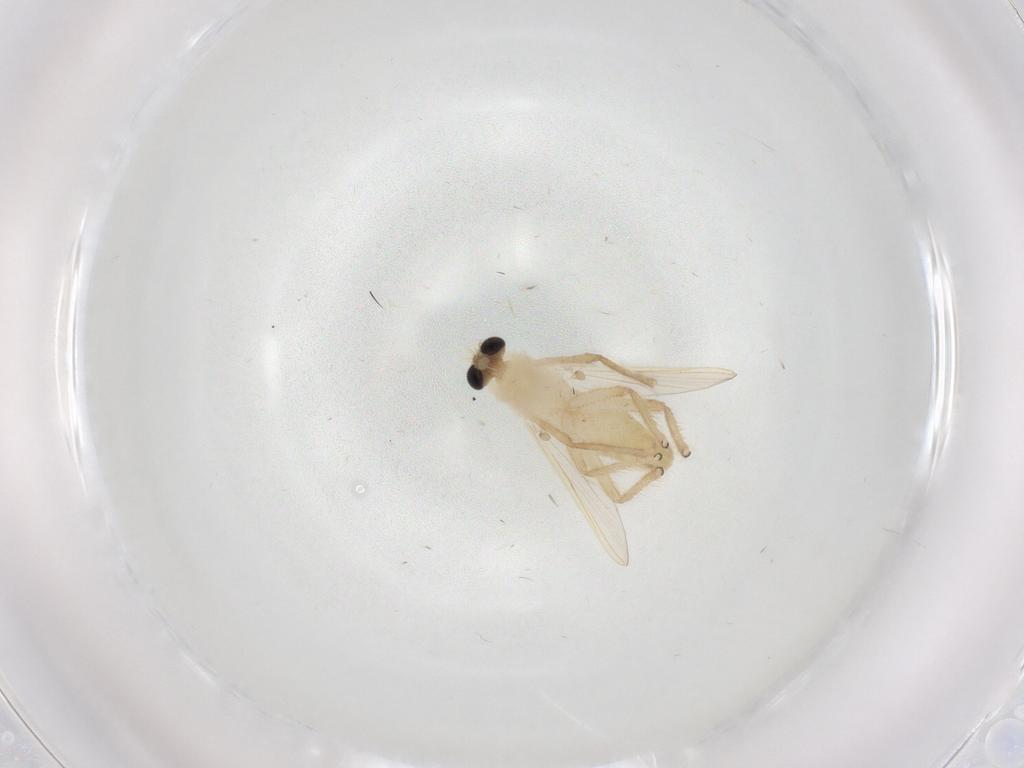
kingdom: Animalia
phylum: Arthropoda
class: Insecta
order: Diptera
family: Chironomidae
